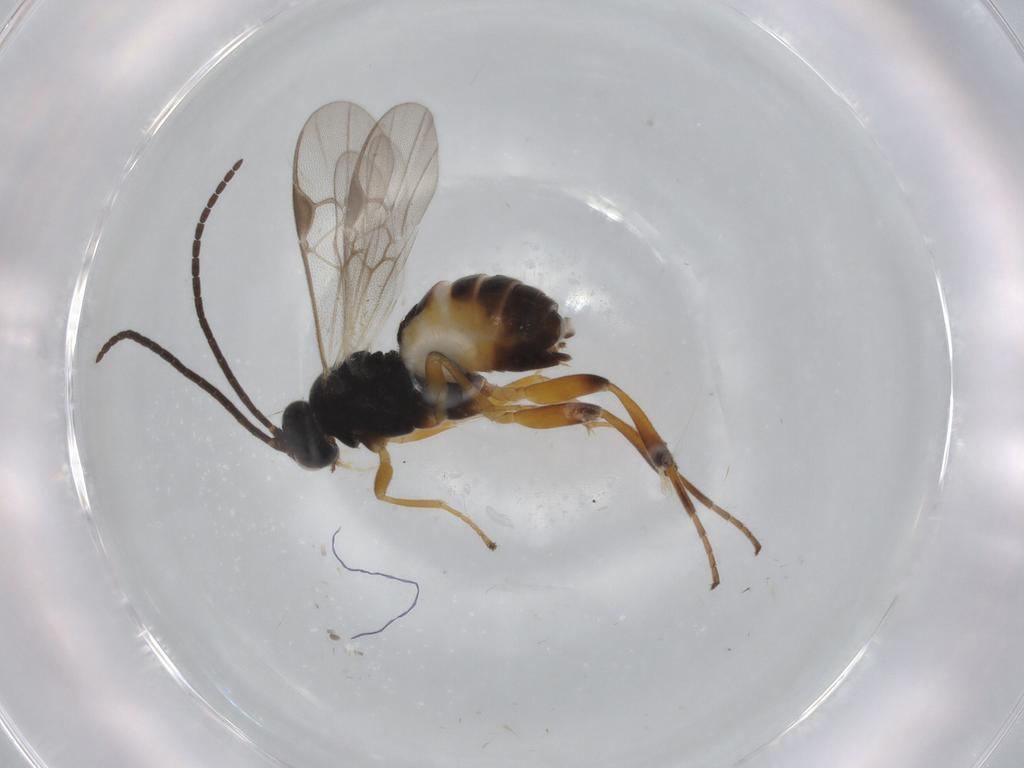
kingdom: Animalia
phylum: Arthropoda
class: Insecta
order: Hymenoptera
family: Braconidae
